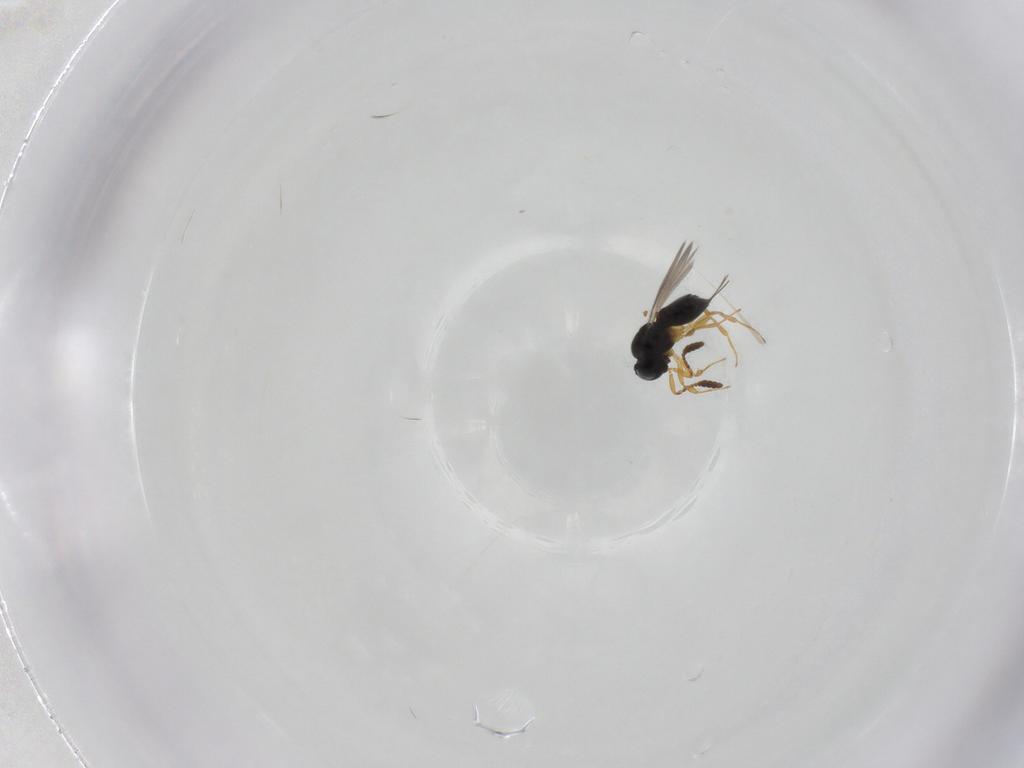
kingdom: Animalia
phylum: Arthropoda
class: Insecta
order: Hymenoptera
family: Scelionidae
